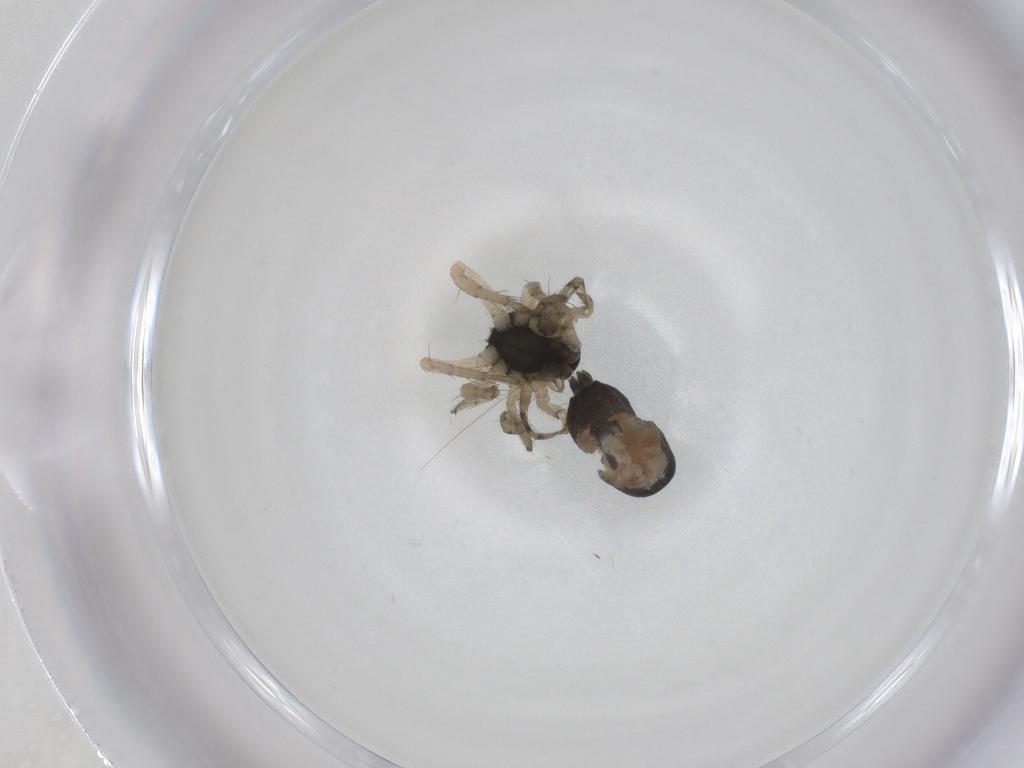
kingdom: Animalia
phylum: Arthropoda
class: Arachnida
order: Araneae
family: Anyphaenidae
